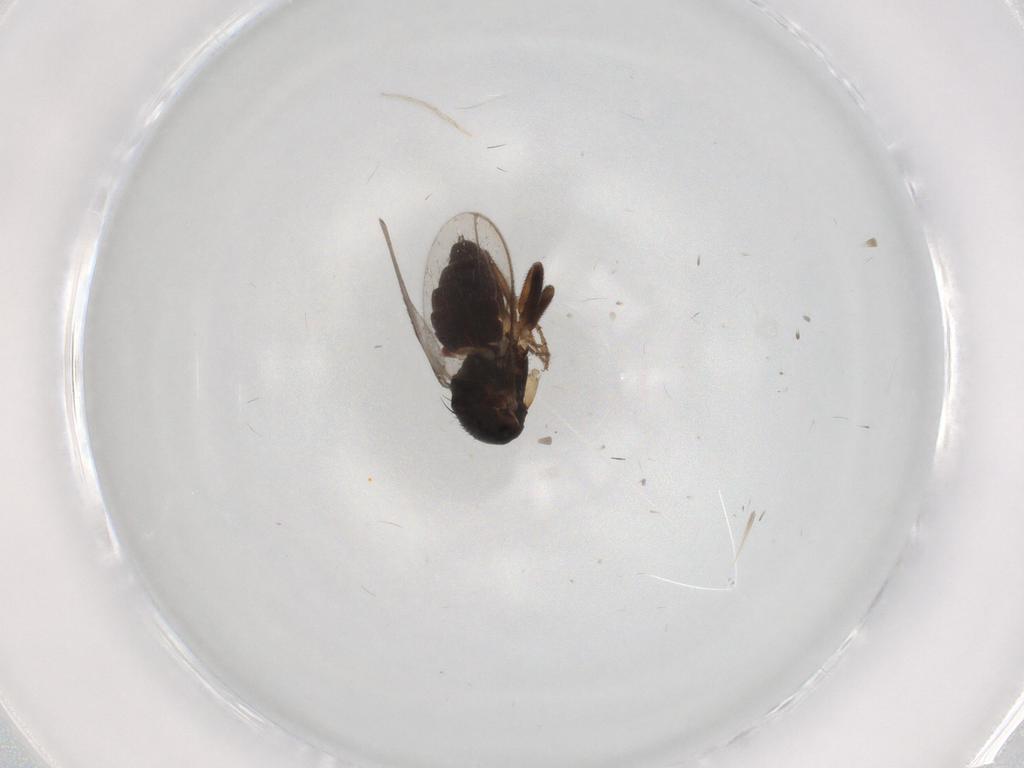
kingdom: Animalia
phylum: Arthropoda
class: Insecta
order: Diptera
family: Sphaeroceridae
